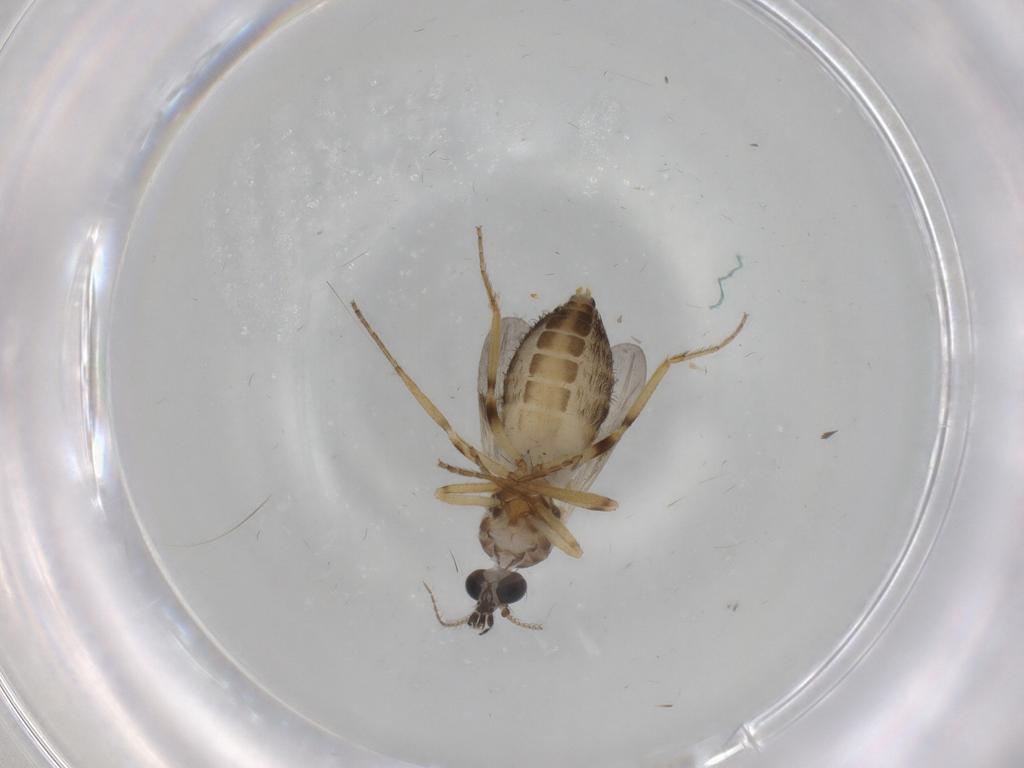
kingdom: Animalia
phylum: Arthropoda
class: Insecta
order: Diptera
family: Ceratopogonidae
